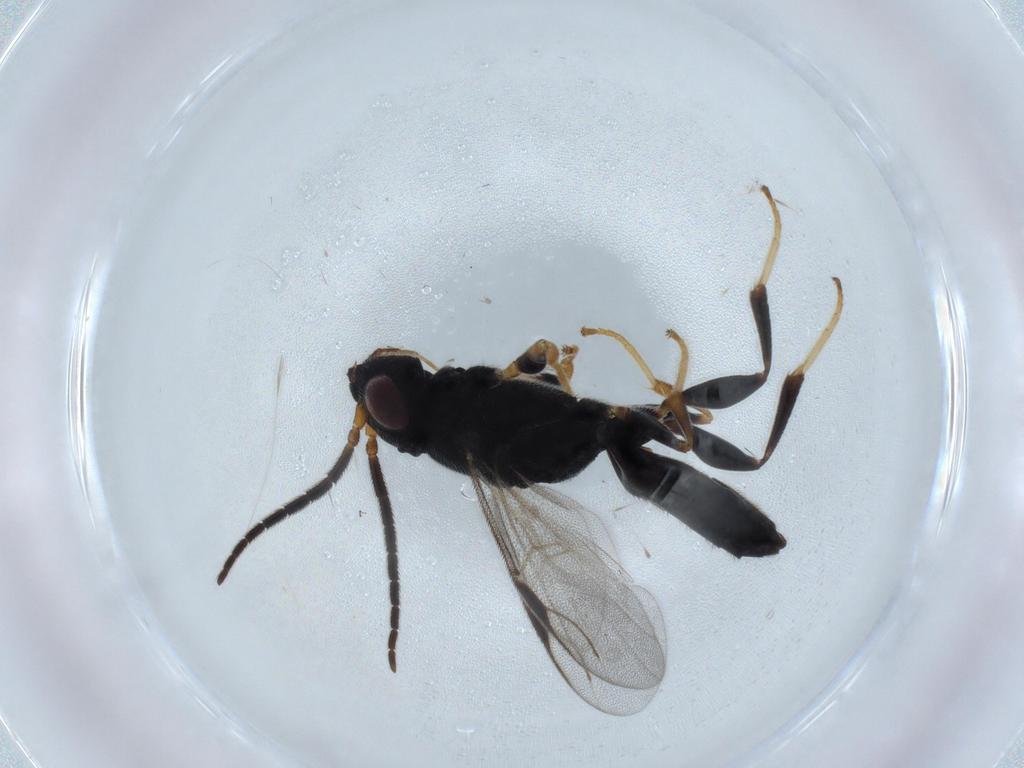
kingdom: Animalia
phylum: Arthropoda
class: Insecta
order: Hymenoptera
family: Dryinidae
